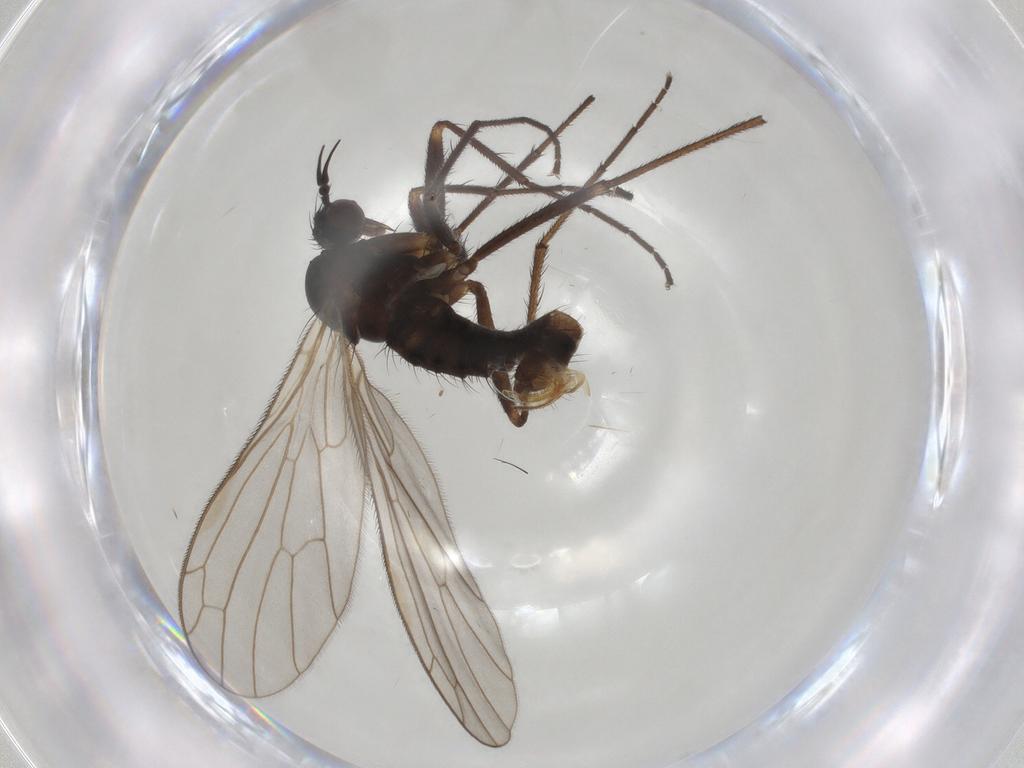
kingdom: Animalia
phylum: Arthropoda
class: Insecta
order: Diptera
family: Empididae
